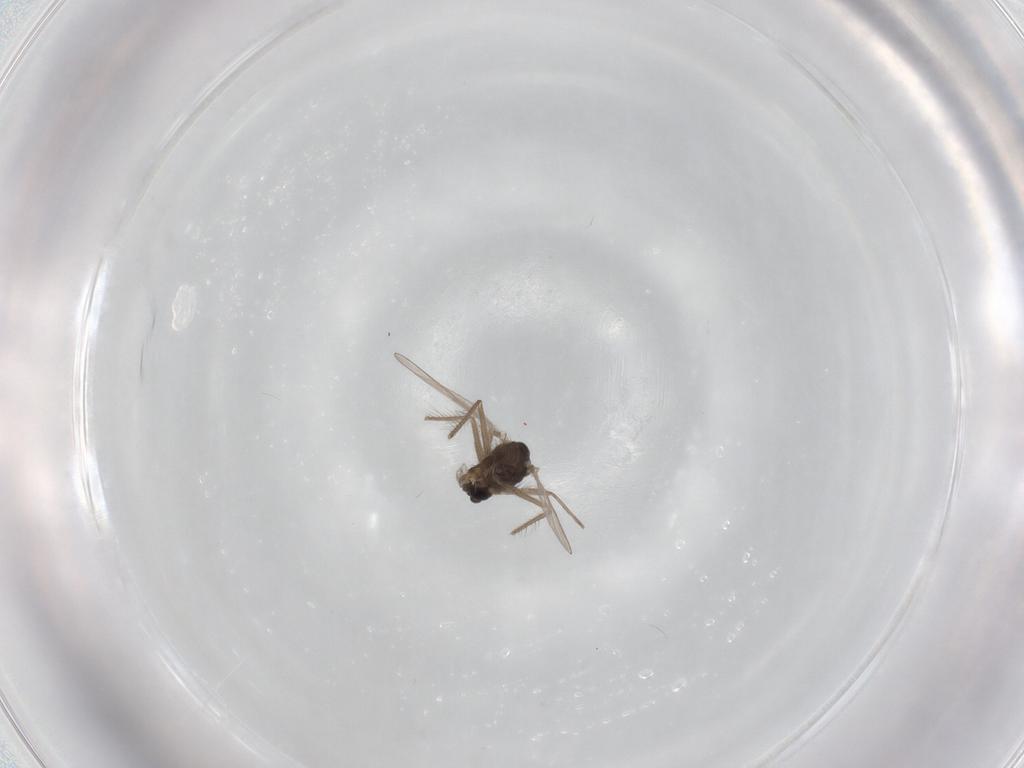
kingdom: Animalia
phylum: Arthropoda
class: Insecta
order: Diptera
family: Chironomidae
